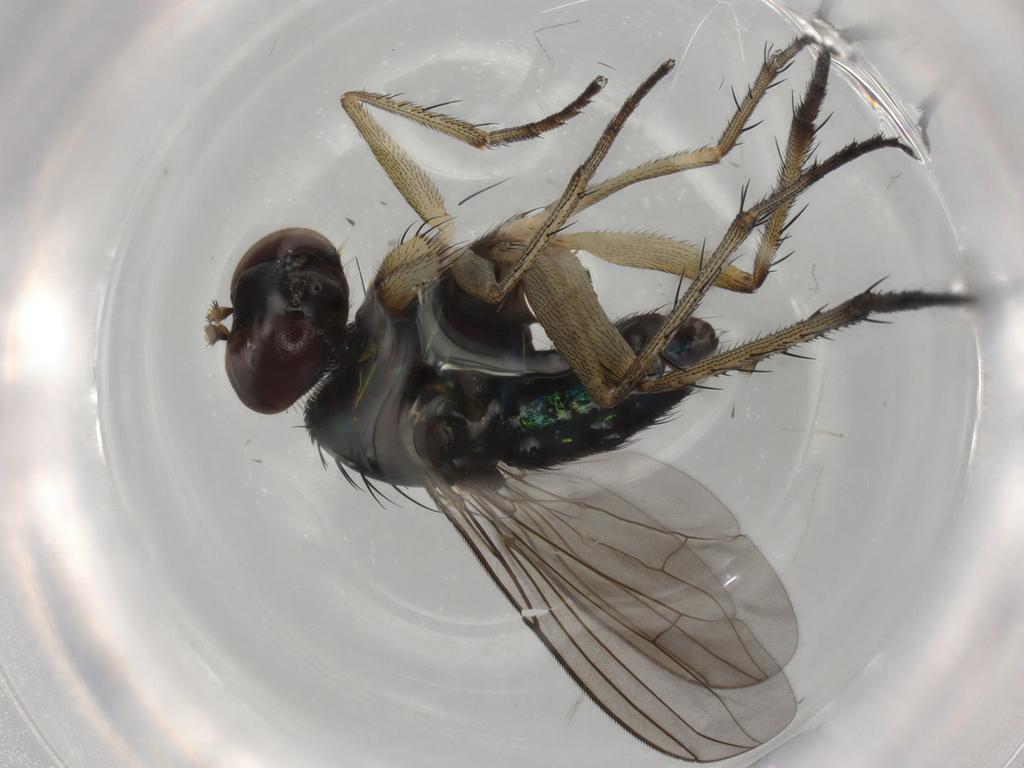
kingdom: Animalia
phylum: Arthropoda
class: Insecta
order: Diptera
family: Dolichopodidae
